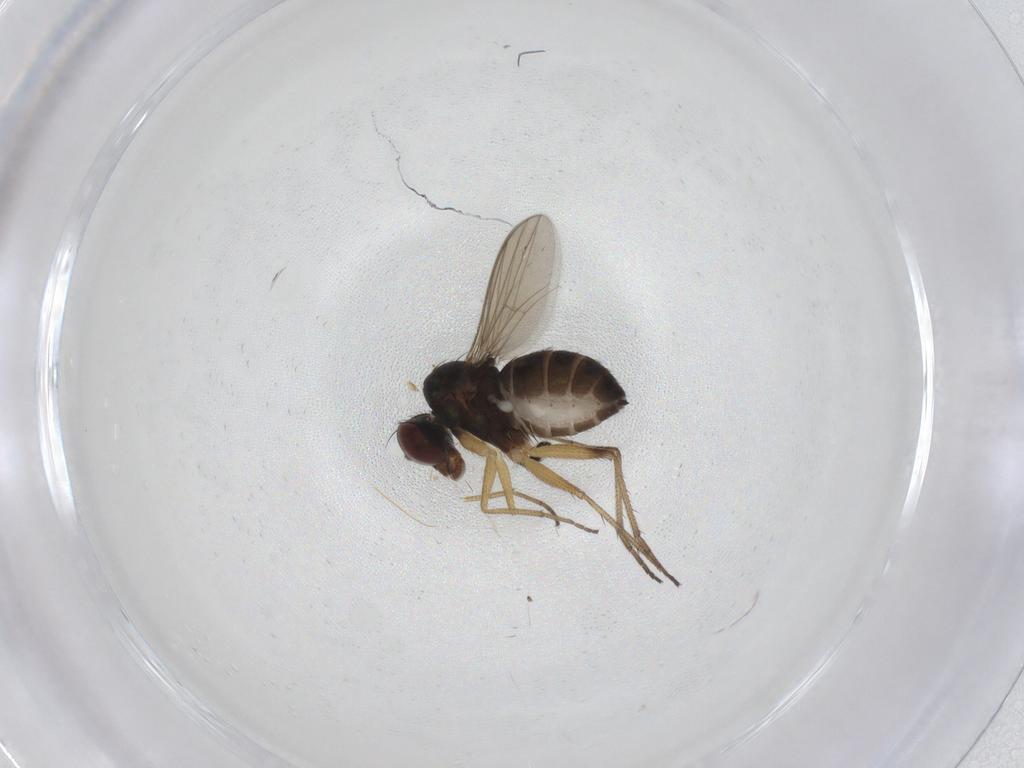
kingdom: Animalia
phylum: Arthropoda
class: Insecta
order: Diptera
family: Dolichopodidae
